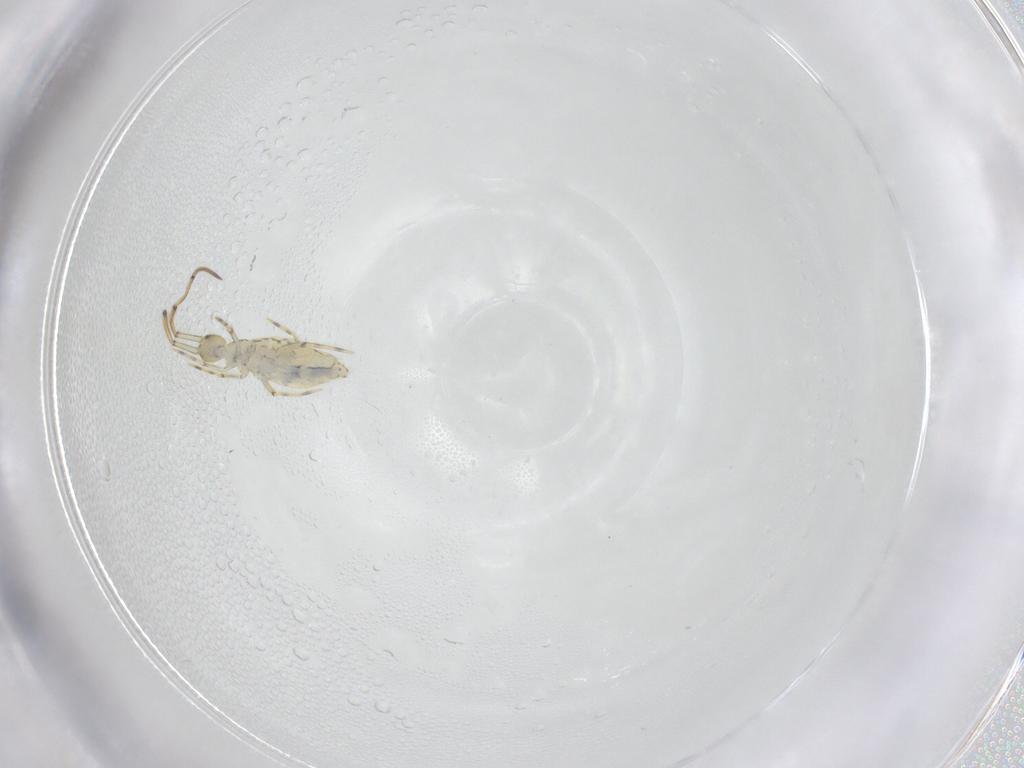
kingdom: Animalia
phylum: Arthropoda
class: Collembola
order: Entomobryomorpha
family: Paronellidae
